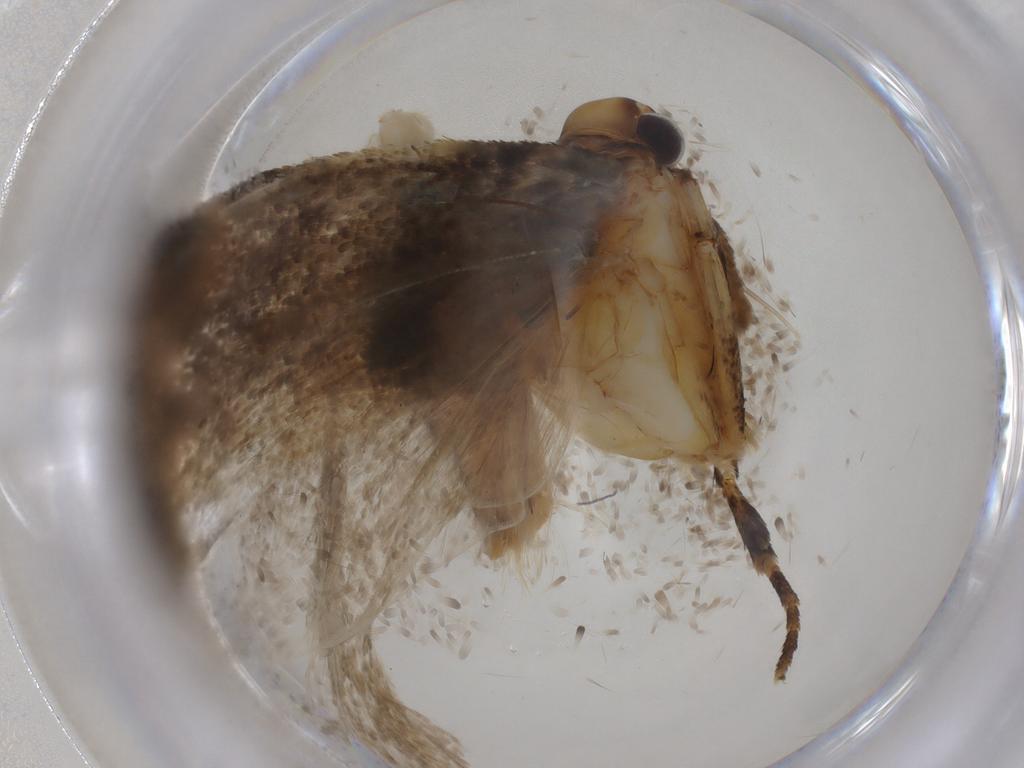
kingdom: Animalia
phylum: Arthropoda
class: Insecta
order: Lepidoptera
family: Gelechiidae
